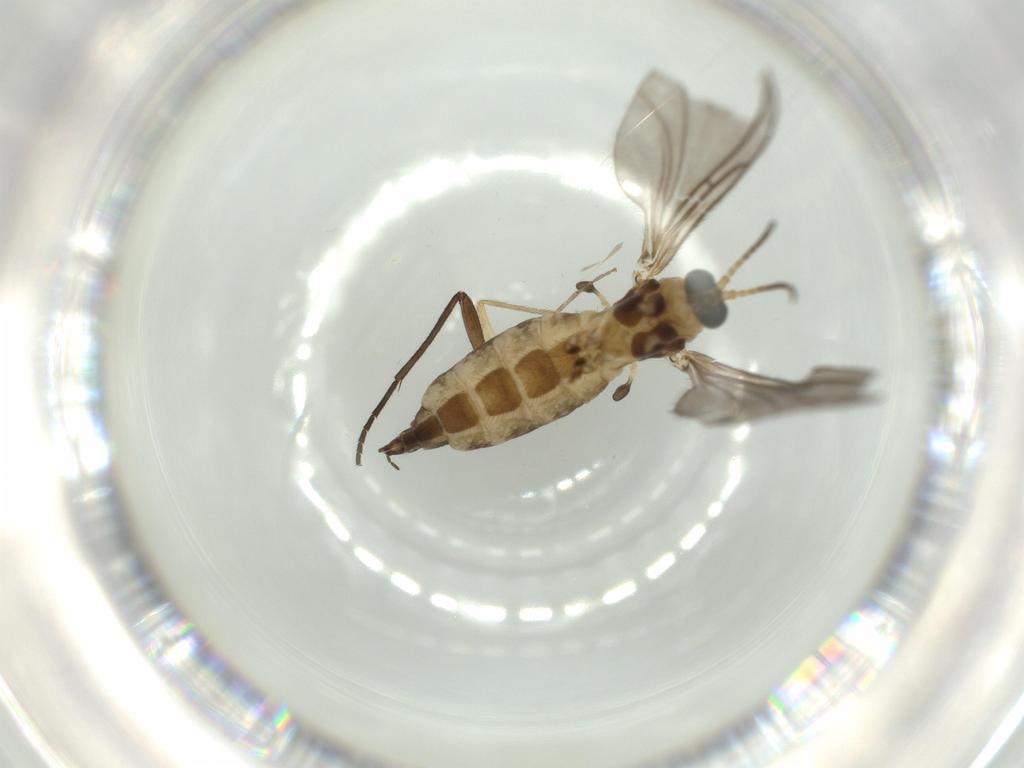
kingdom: Animalia
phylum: Arthropoda
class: Insecta
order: Diptera
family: Sciaridae
